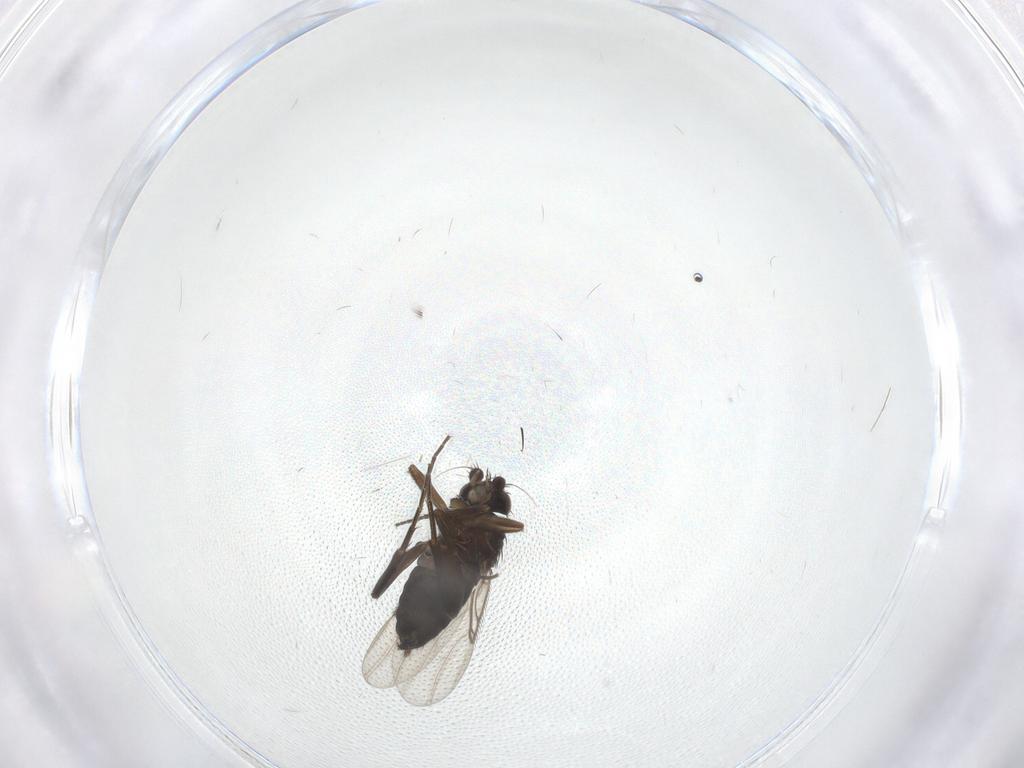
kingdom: Animalia
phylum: Arthropoda
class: Insecta
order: Diptera
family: Phoridae
